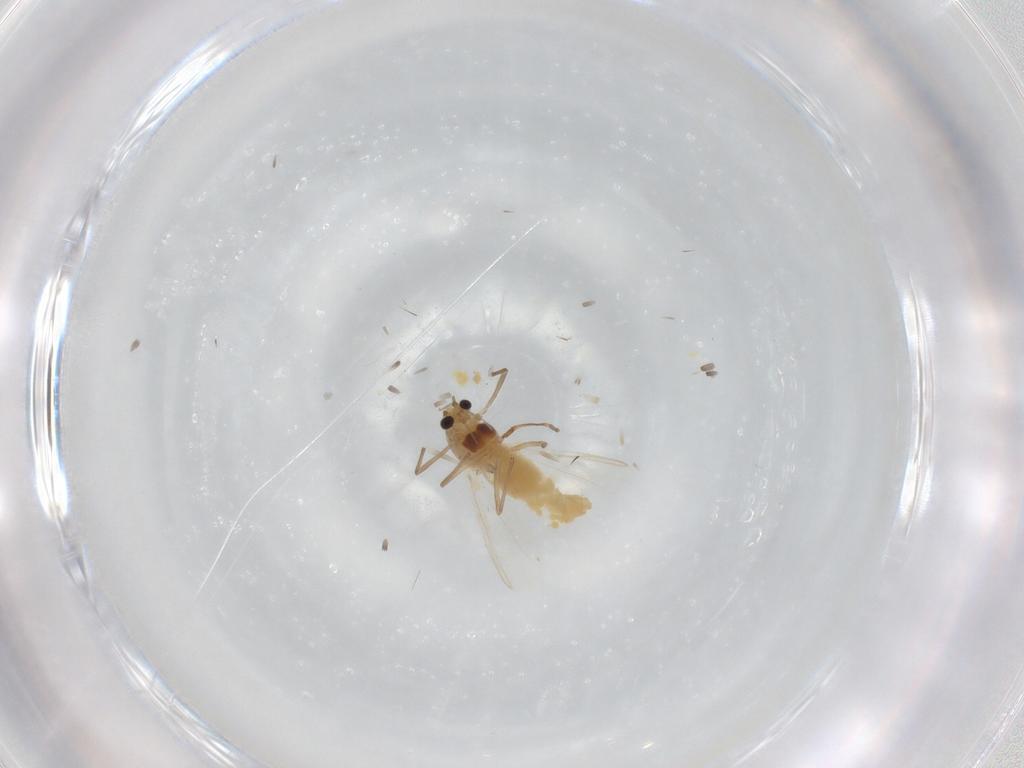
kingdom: Animalia
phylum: Arthropoda
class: Insecta
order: Diptera
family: Chironomidae
